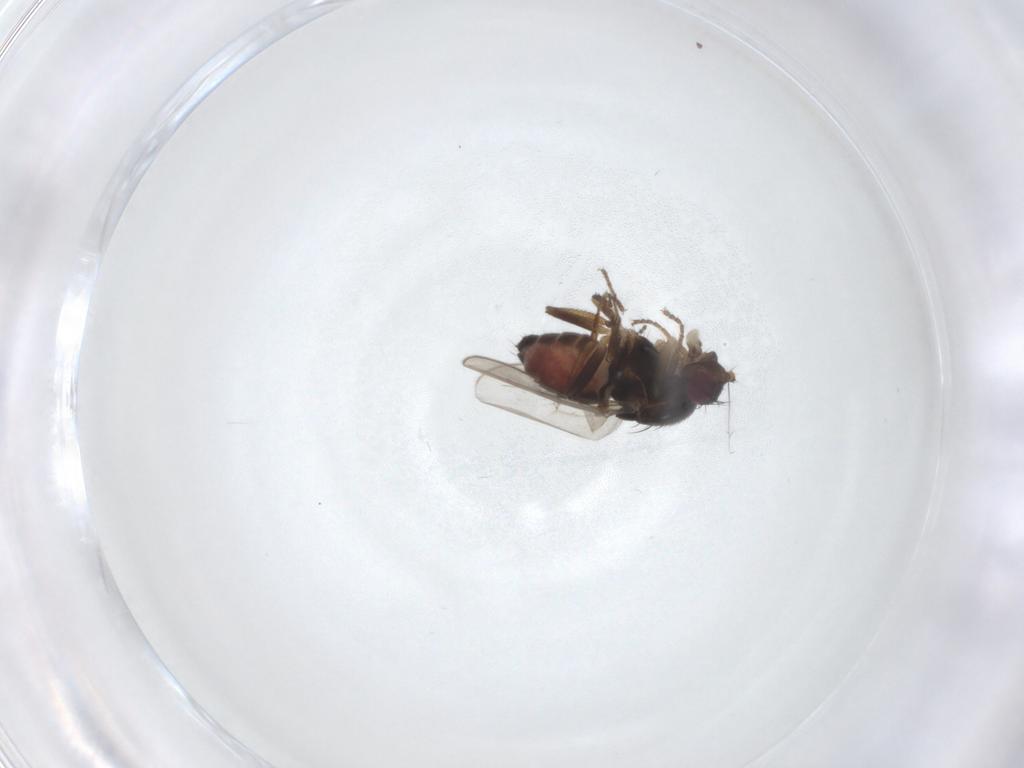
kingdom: Animalia
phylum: Arthropoda
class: Insecta
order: Diptera
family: Sphaeroceridae
